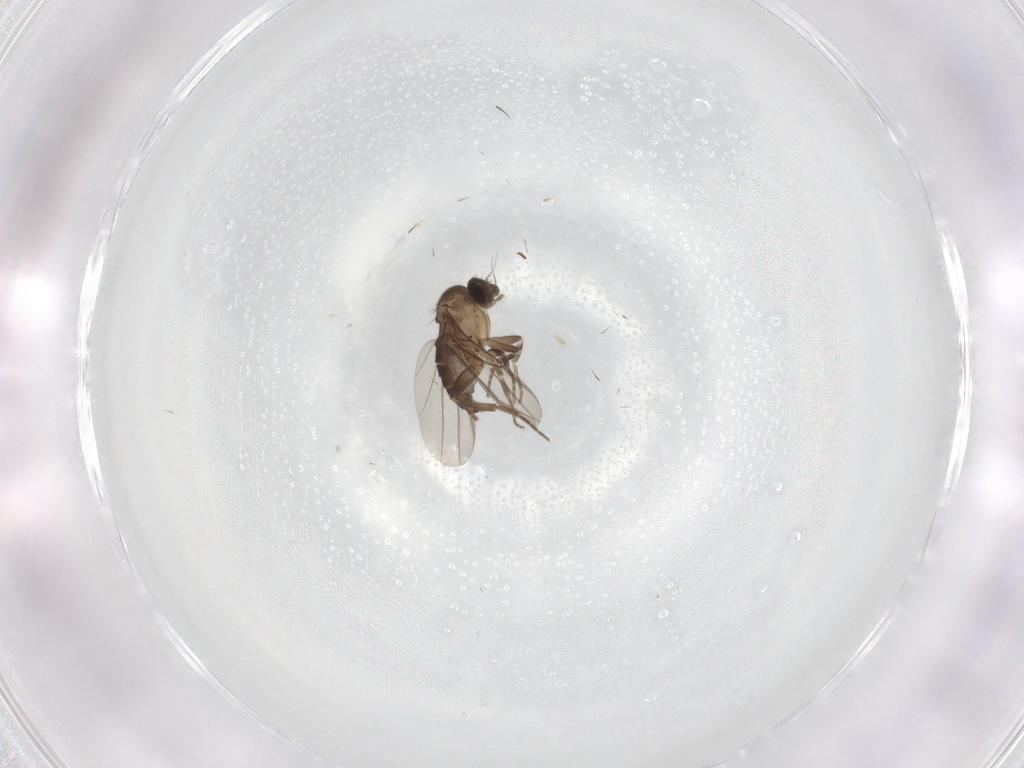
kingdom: Animalia
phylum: Arthropoda
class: Insecta
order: Diptera
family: Phoridae
